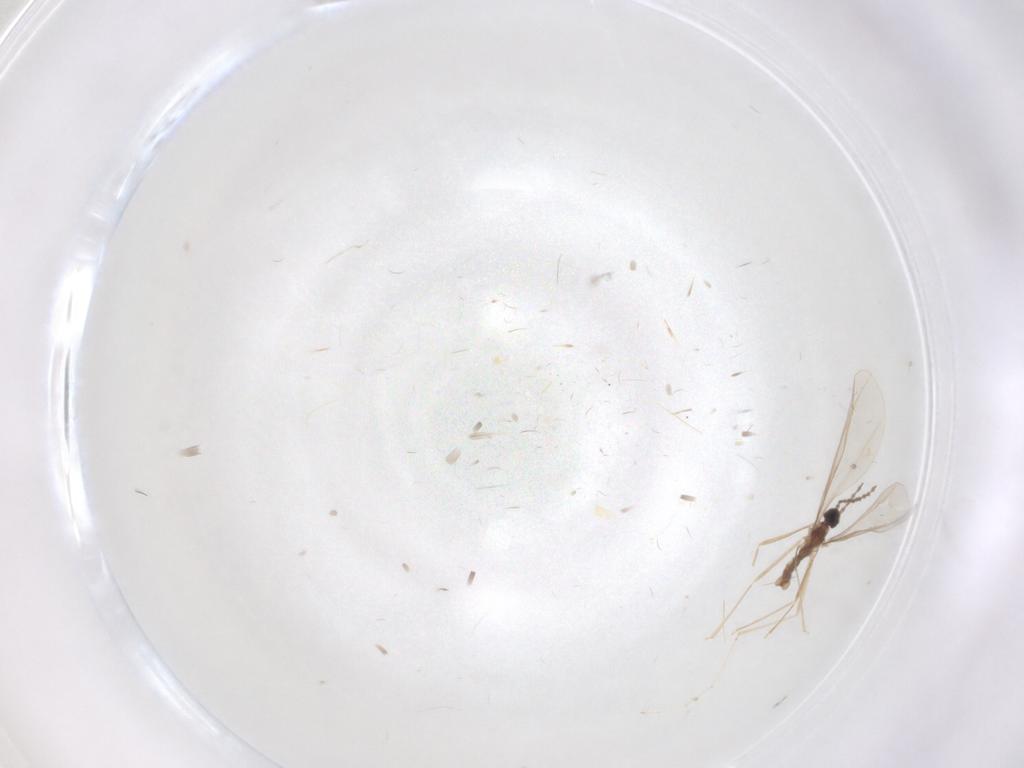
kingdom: Animalia
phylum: Arthropoda
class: Insecta
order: Diptera
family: Cecidomyiidae
